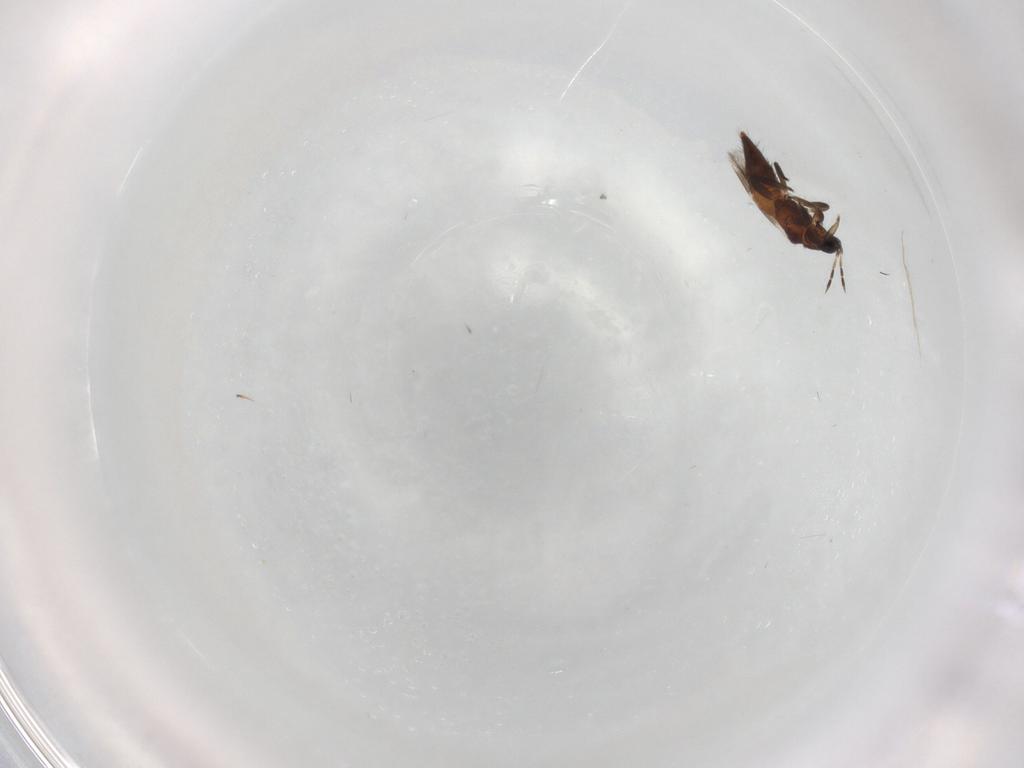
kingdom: Animalia
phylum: Arthropoda
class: Insecta
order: Thysanoptera
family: Aeolothripidae
